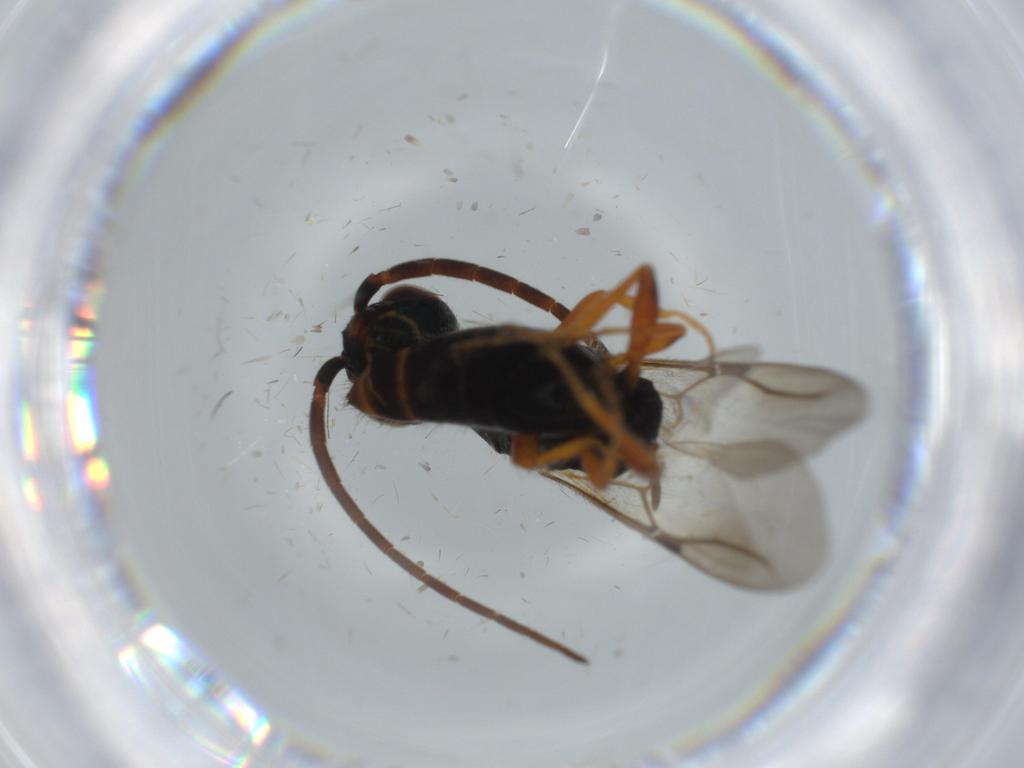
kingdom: Animalia
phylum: Arthropoda
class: Insecta
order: Hymenoptera
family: Bethylidae
